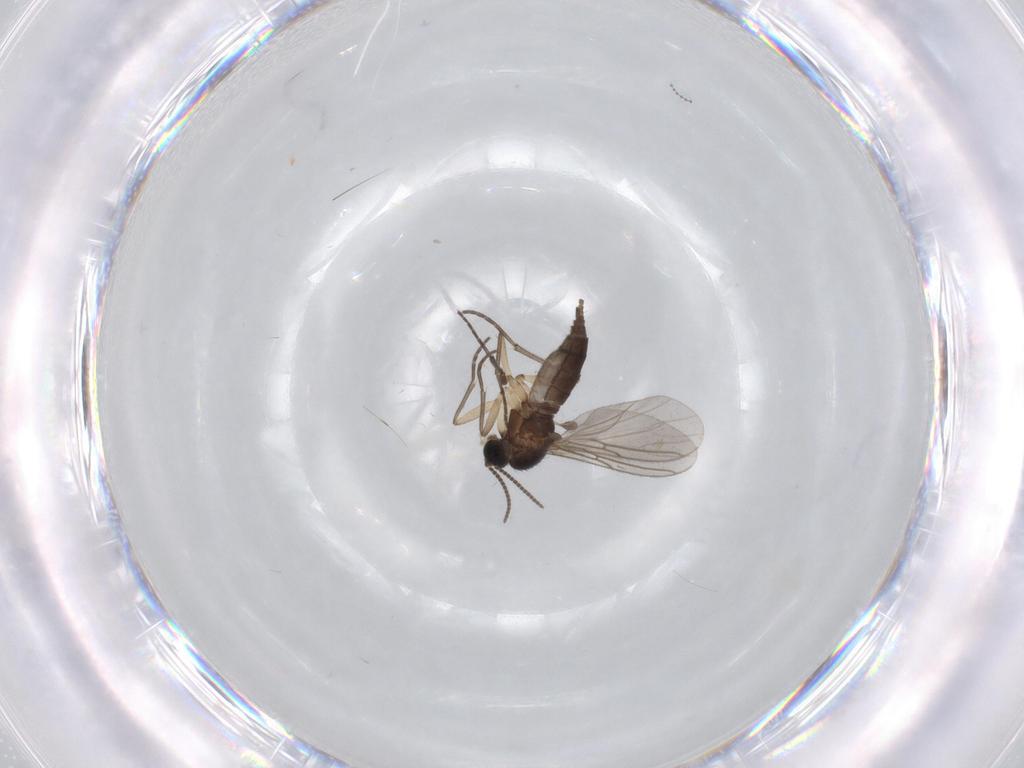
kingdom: Animalia
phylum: Arthropoda
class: Insecta
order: Diptera
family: Sciaridae
